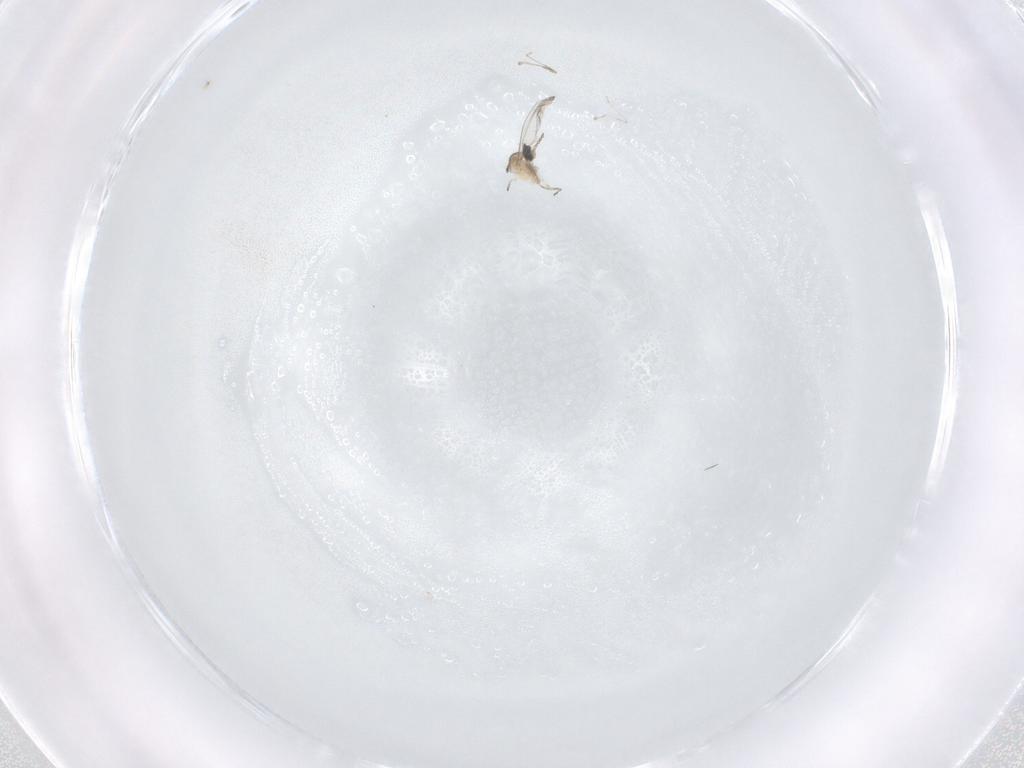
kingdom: Animalia
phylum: Arthropoda
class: Insecta
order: Diptera
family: Cecidomyiidae
